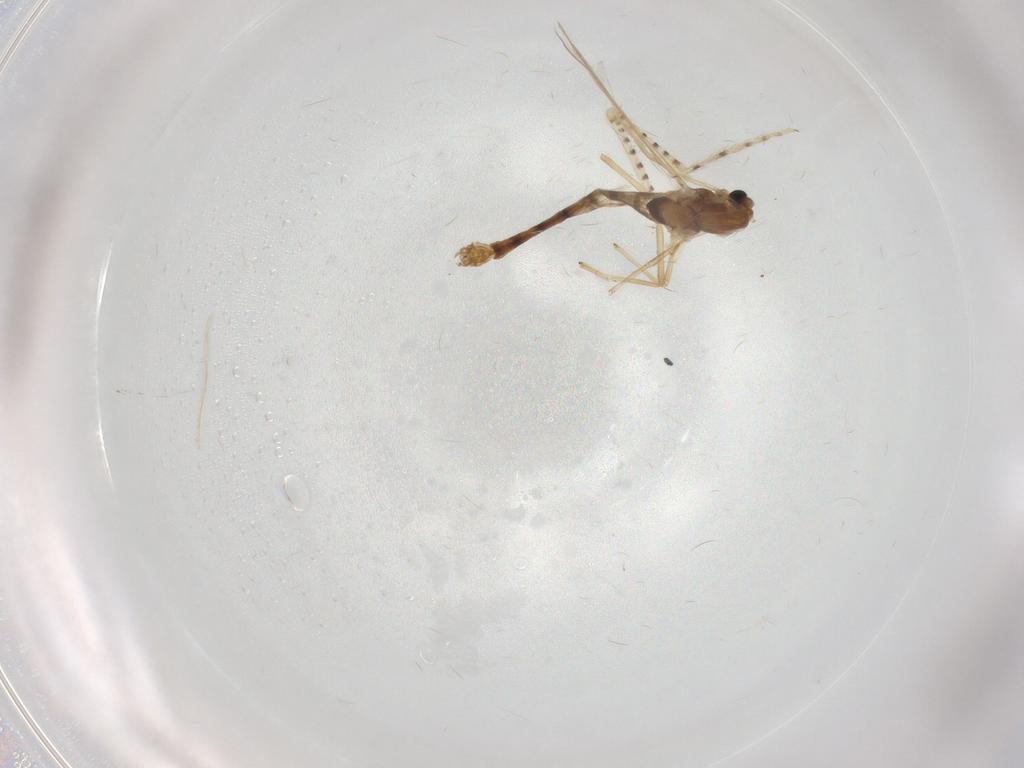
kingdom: Animalia
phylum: Arthropoda
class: Insecta
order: Diptera
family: Chironomidae
